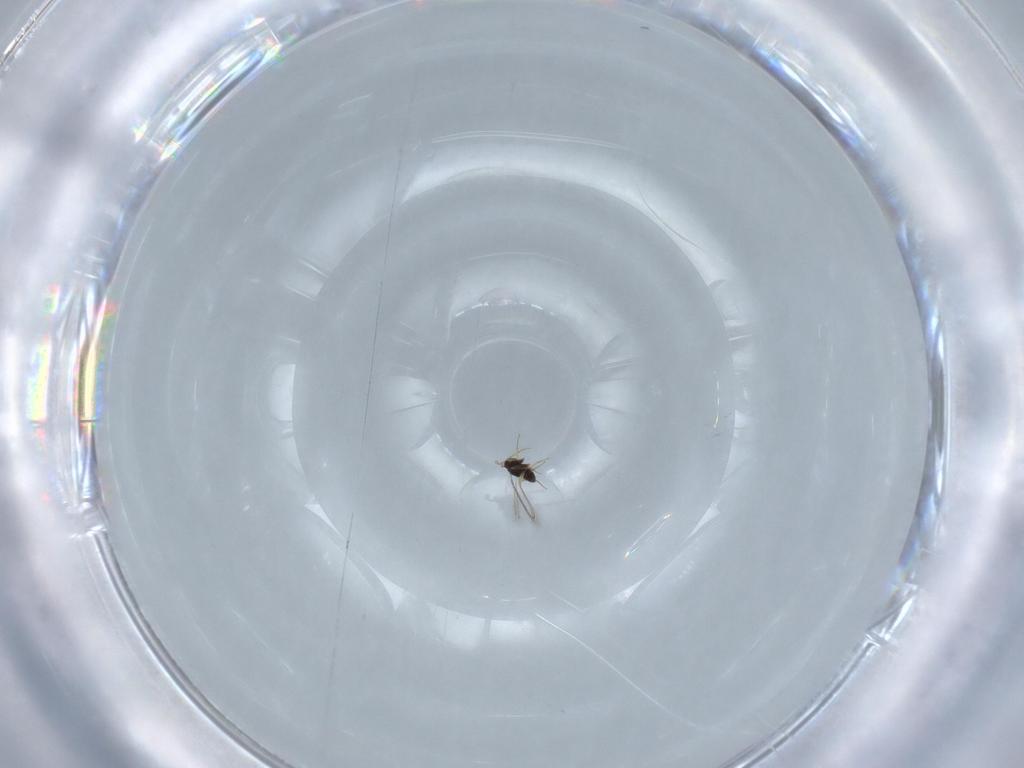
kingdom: Animalia
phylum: Arthropoda
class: Insecta
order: Hymenoptera
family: Mymaridae
